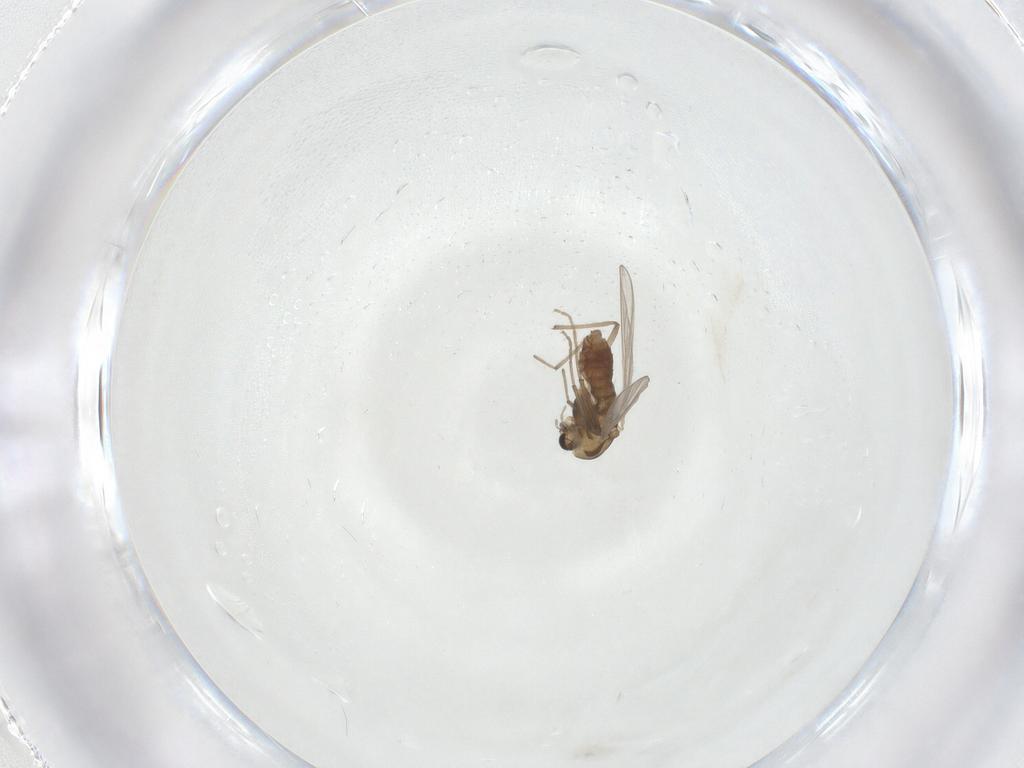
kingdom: Animalia
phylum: Arthropoda
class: Insecta
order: Diptera
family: Chironomidae
